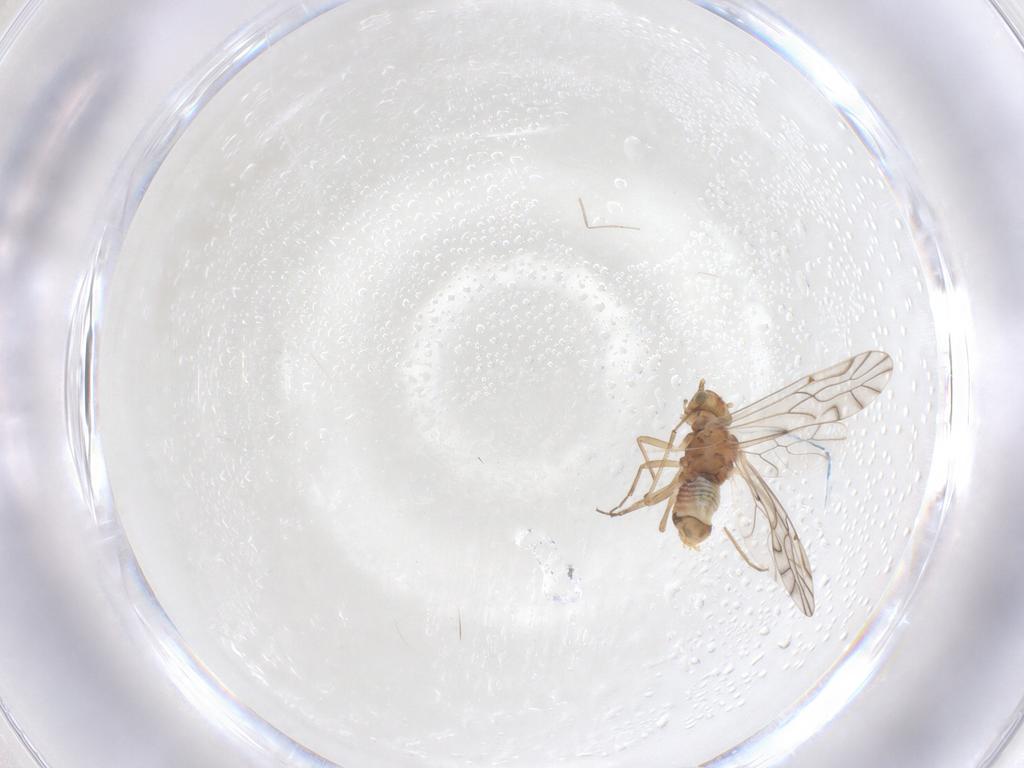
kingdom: Animalia
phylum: Arthropoda
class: Insecta
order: Psocodea
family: Lachesillidae
